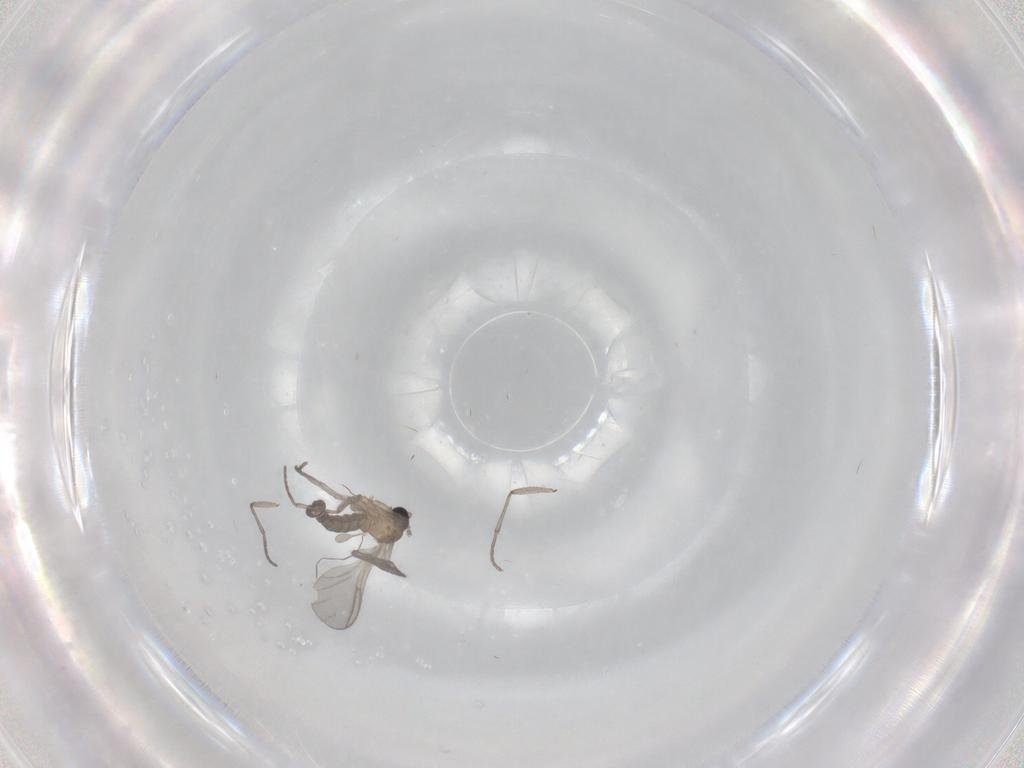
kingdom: Animalia
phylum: Arthropoda
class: Insecta
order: Diptera
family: Sciaridae
